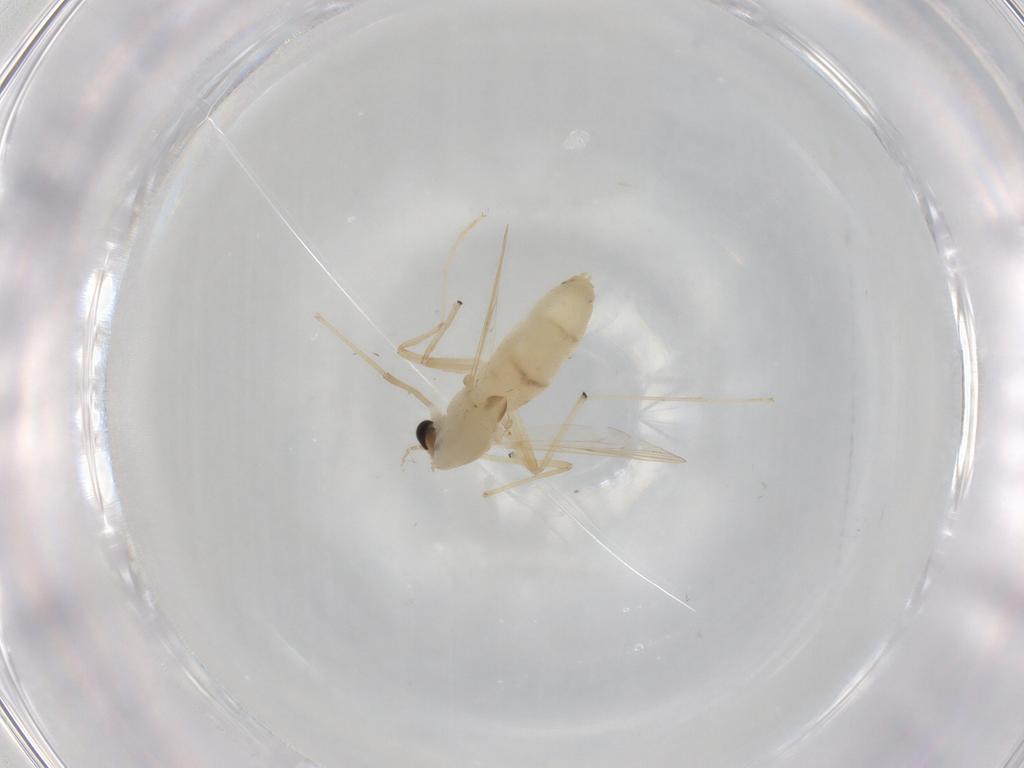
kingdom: Animalia
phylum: Arthropoda
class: Insecta
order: Diptera
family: Chironomidae
